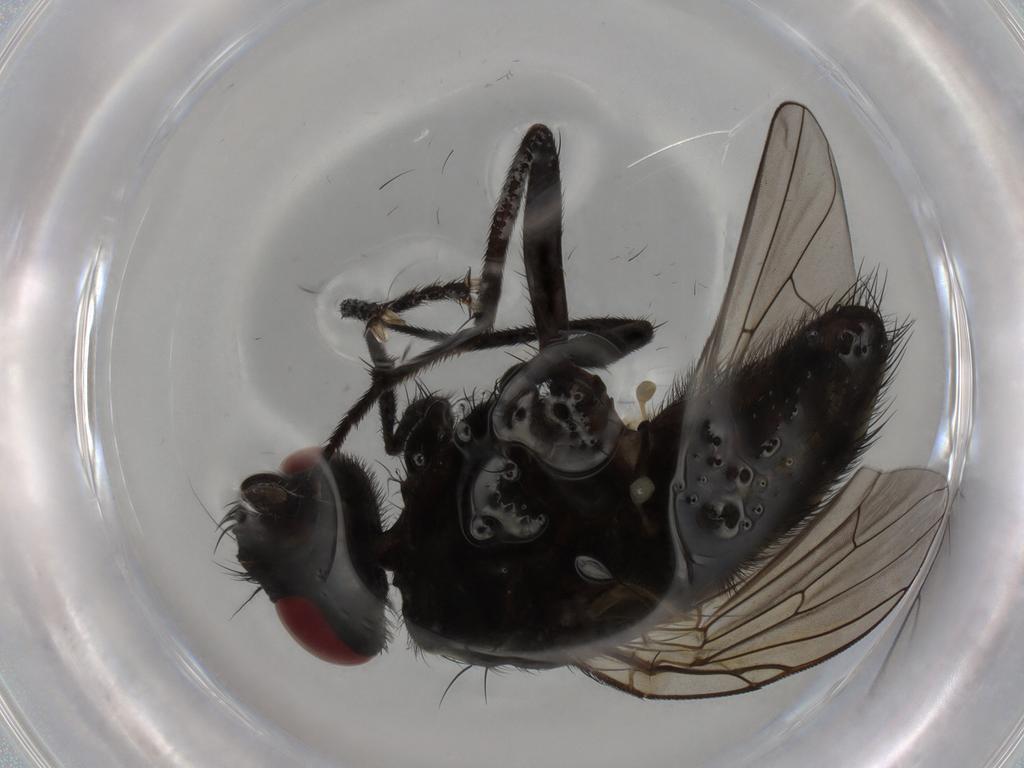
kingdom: Animalia
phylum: Arthropoda
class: Insecta
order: Diptera
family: Muscidae
